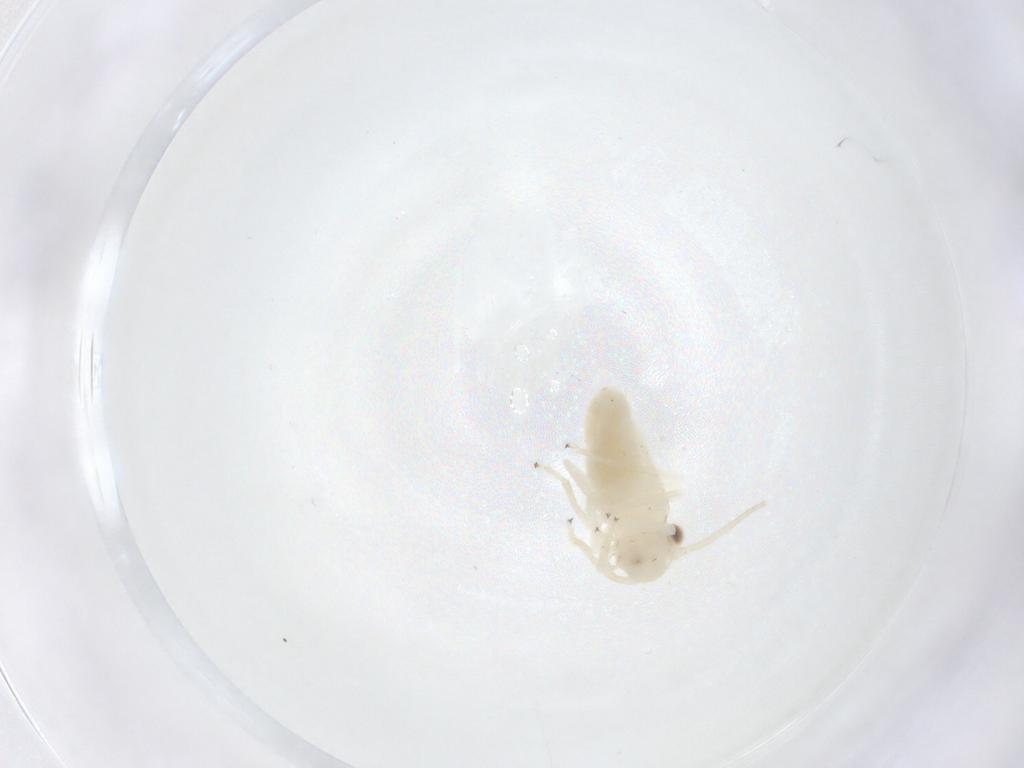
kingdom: Animalia
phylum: Arthropoda
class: Insecta
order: Psocodea
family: Caeciliusidae
